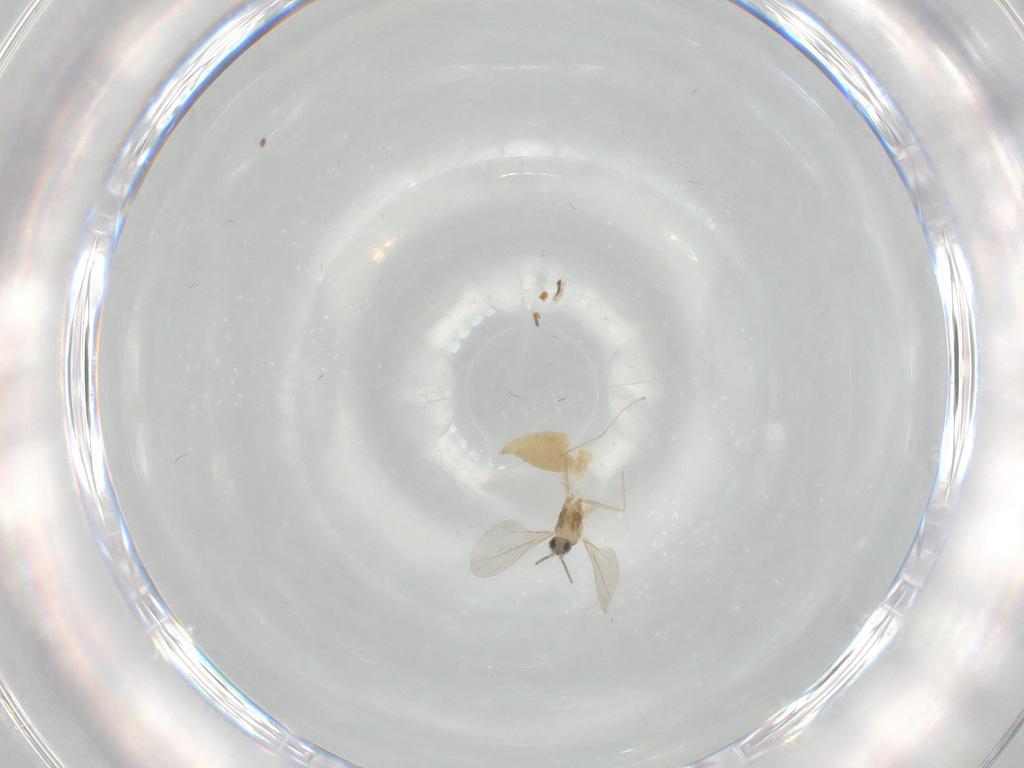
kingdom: Animalia
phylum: Arthropoda
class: Insecta
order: Diptera
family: Cecidomyiidae
